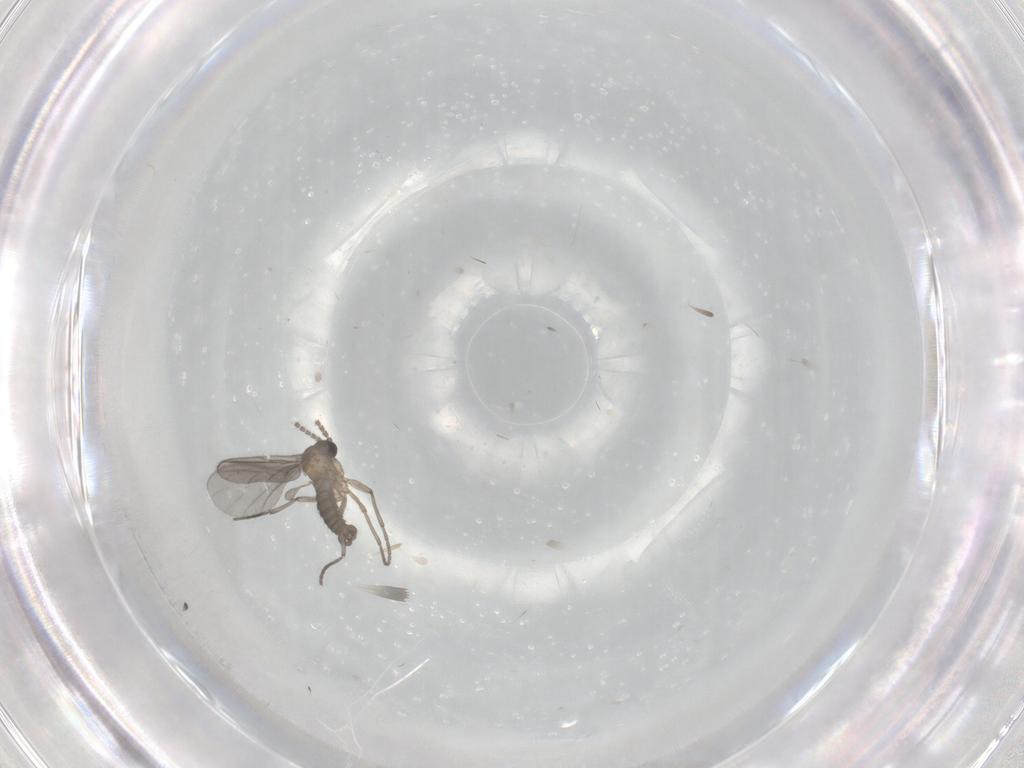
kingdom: Animalia
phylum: Arthropoda
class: Insecta
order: Diptera
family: Sciaridae
